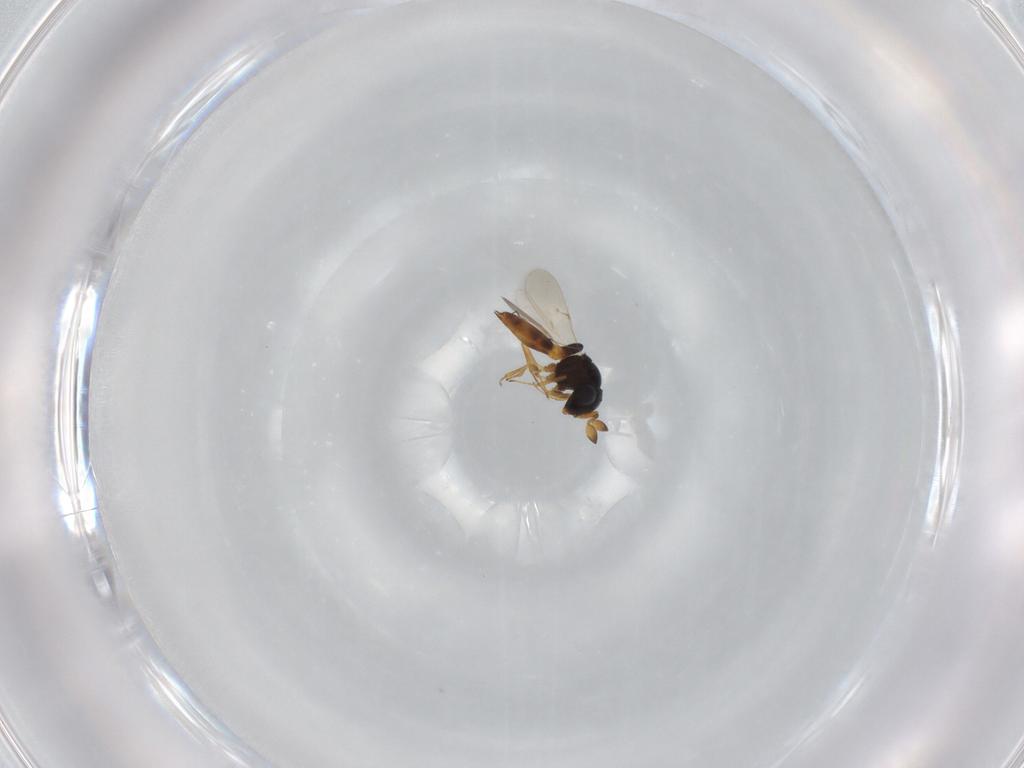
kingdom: Animalia
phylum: Arthropoda
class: Insecta
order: Hymenoptera
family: Scelionidae
